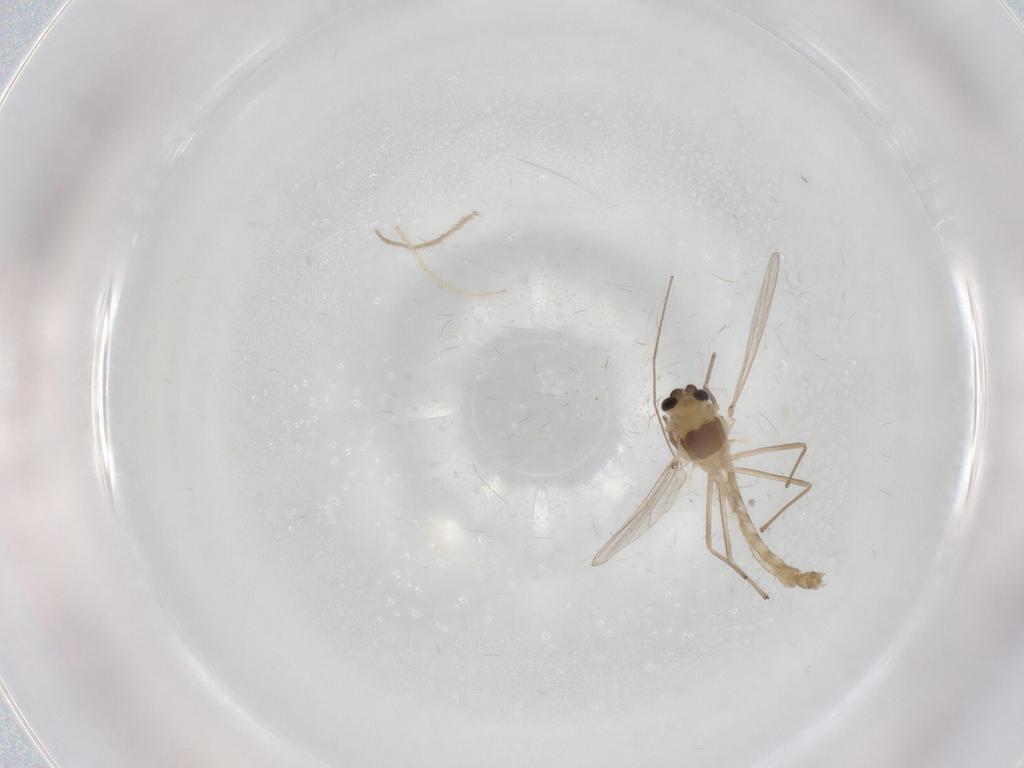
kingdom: Animalia
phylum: Arthropoda
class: Insecta
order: Diptera
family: Chironomidae
